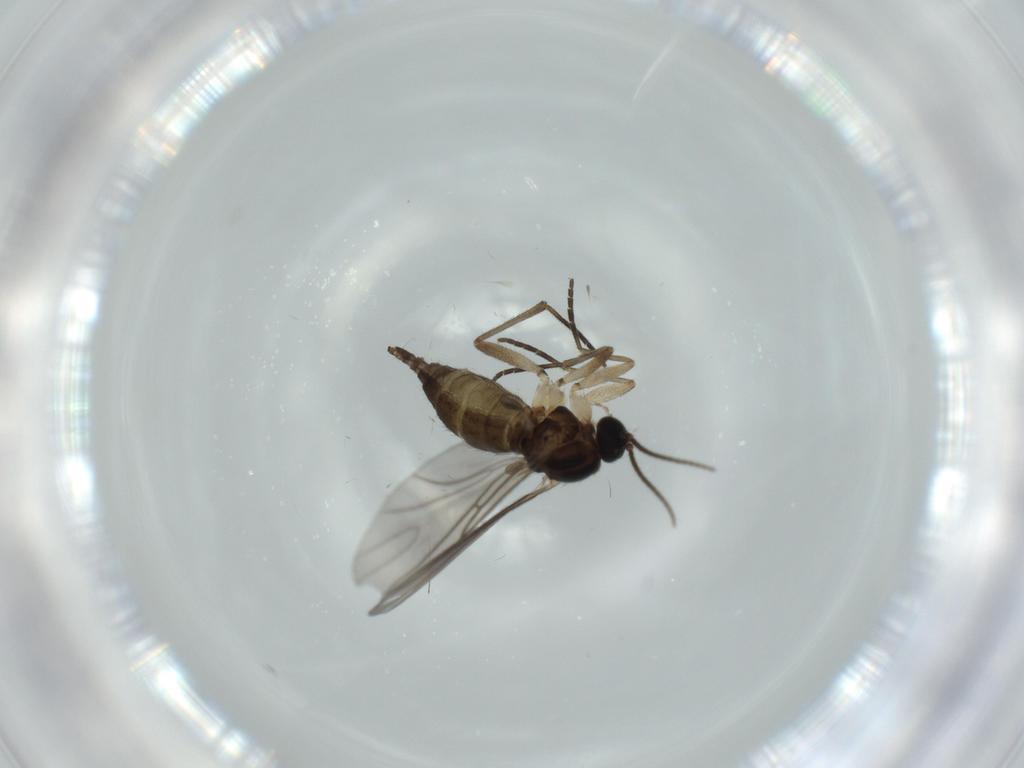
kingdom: Animalia
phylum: Arthropoda
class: Insecta
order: Diptera
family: Sciaridae
